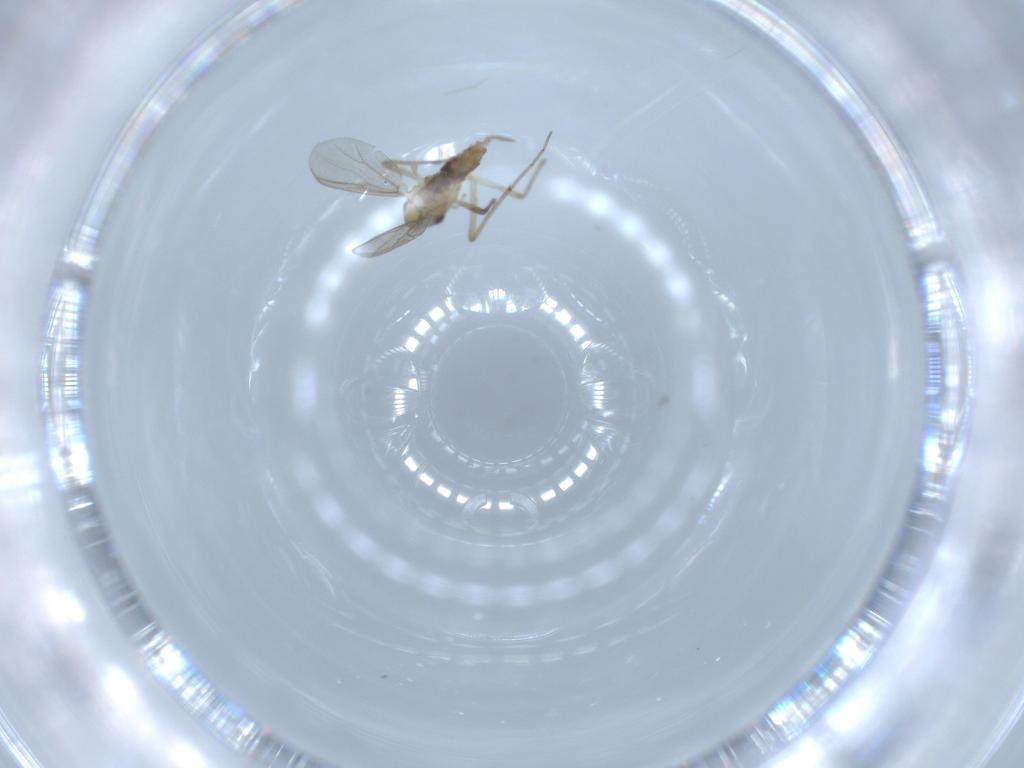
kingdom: Animalia
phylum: Arthropoda
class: Insecta
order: Diptera
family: Chironomidae
